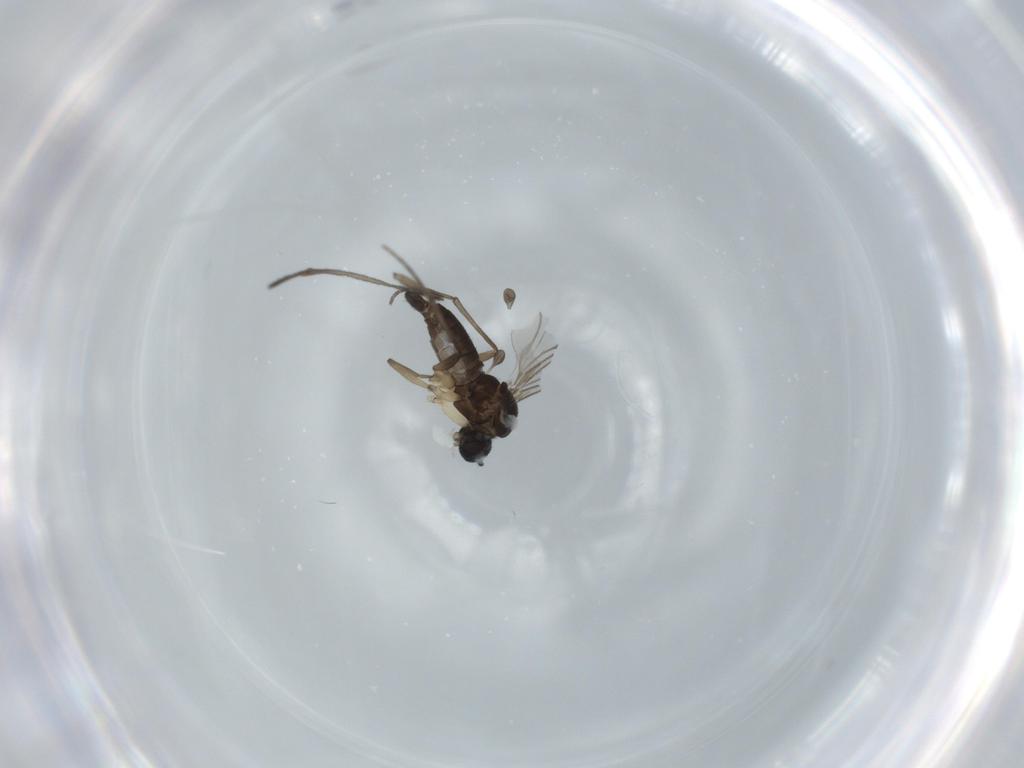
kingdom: Animalia
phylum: Arthropoda
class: Insecta
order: Diptera
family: Sciaridae
